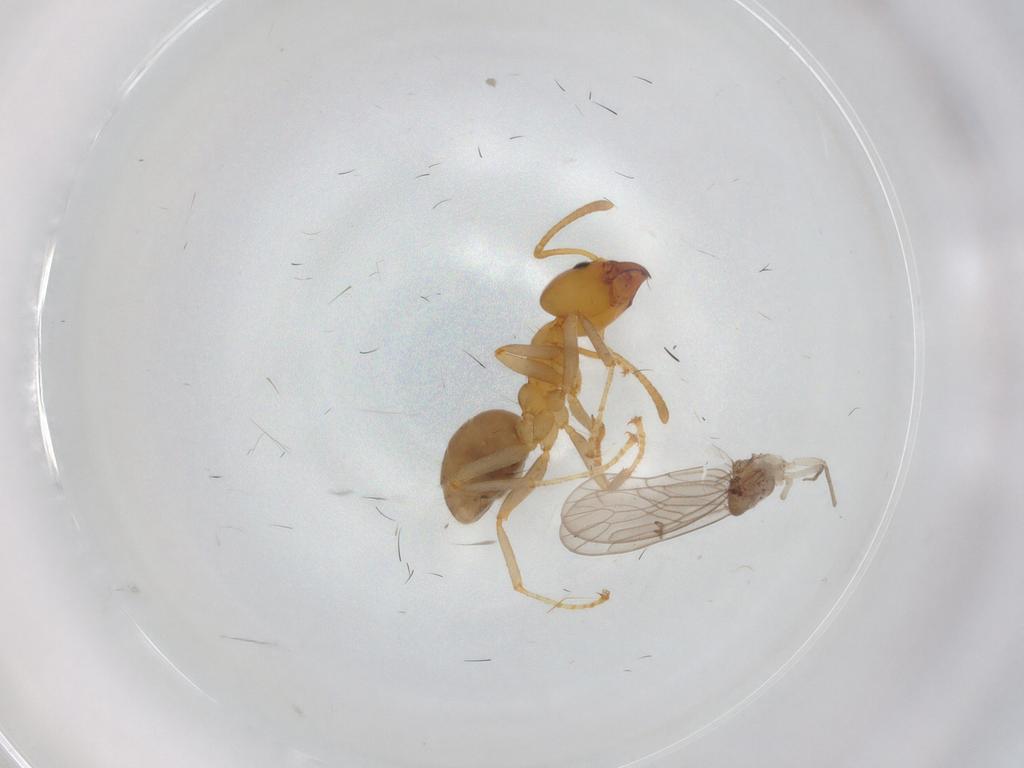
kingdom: Animalia
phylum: Arthropoda
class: Insecta
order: Hymenoptera
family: Formicidae
